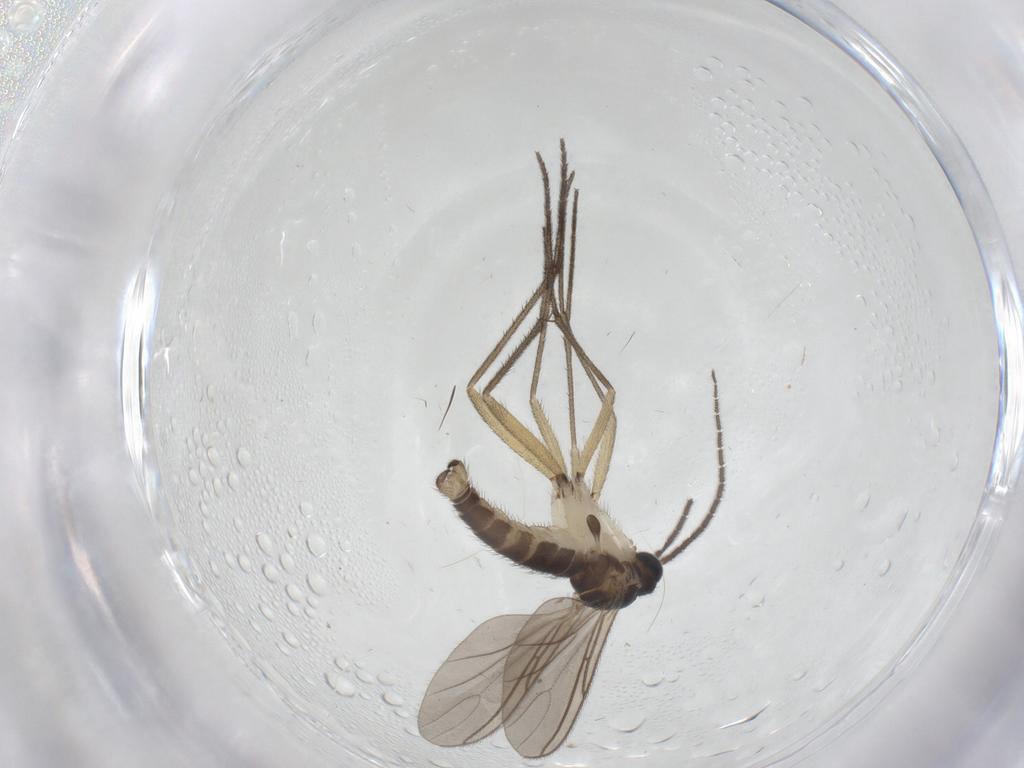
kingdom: Animalia
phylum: Arthropoda
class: Insecta
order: Diptera
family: Sciaridae
